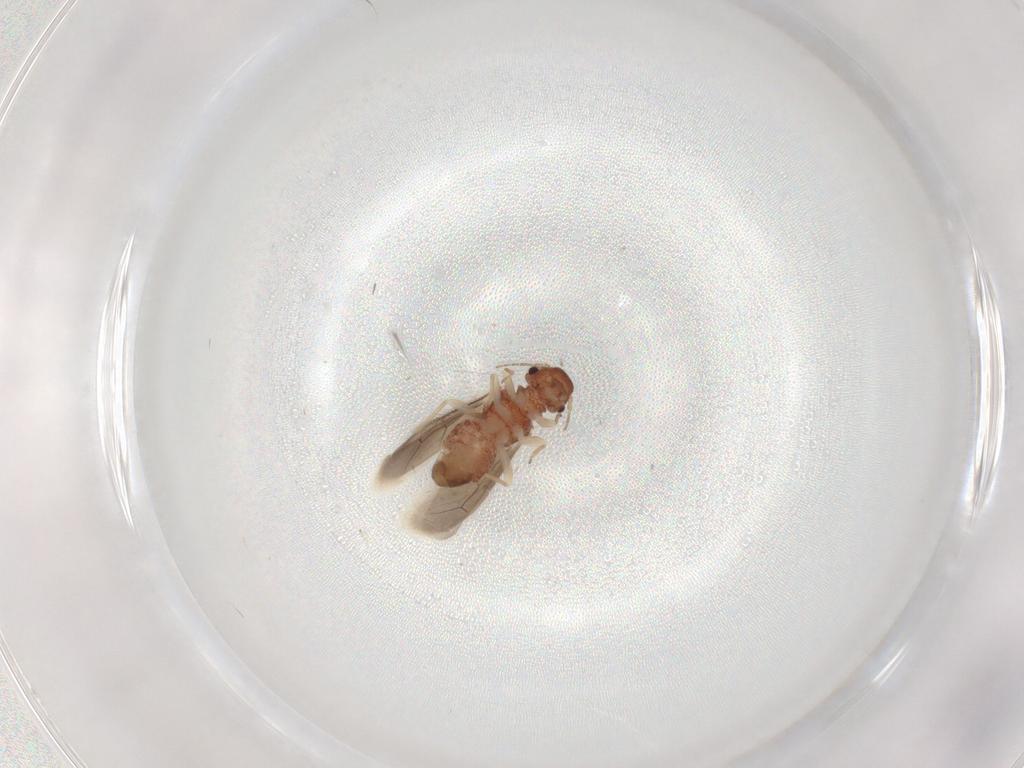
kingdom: Animalia
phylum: Arthropoda
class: Insecta
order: Psocodea
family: Archipsocidae
